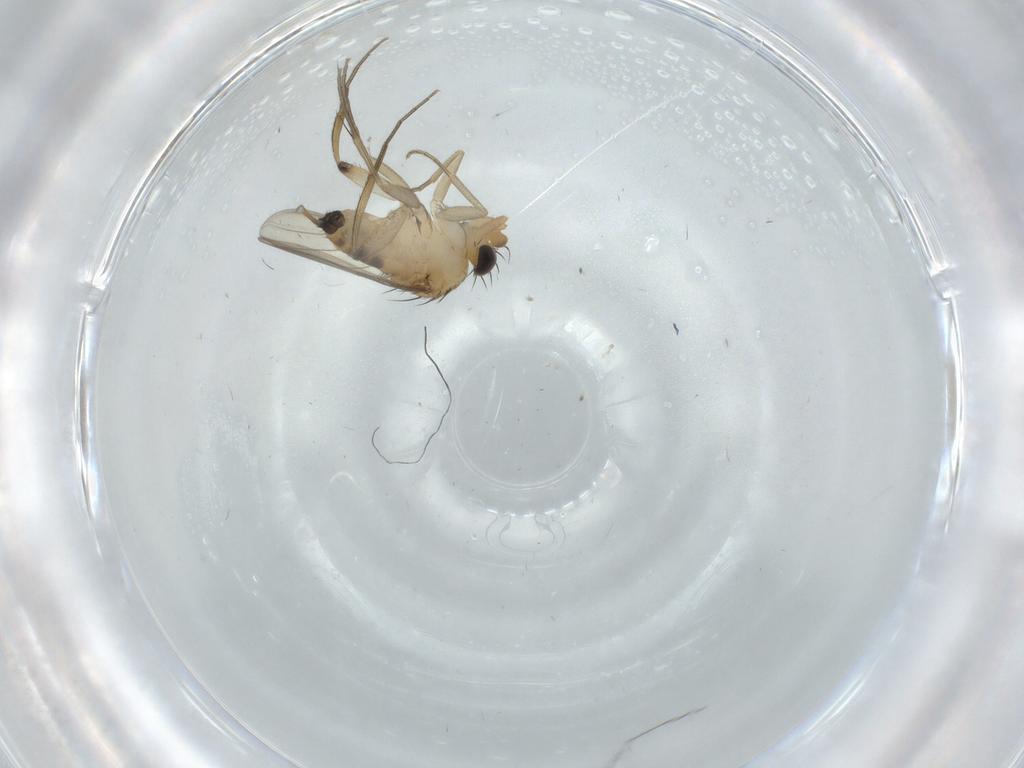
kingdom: Animalia
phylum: Arthropoda
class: Insecta
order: Diptera
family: Phoridae
